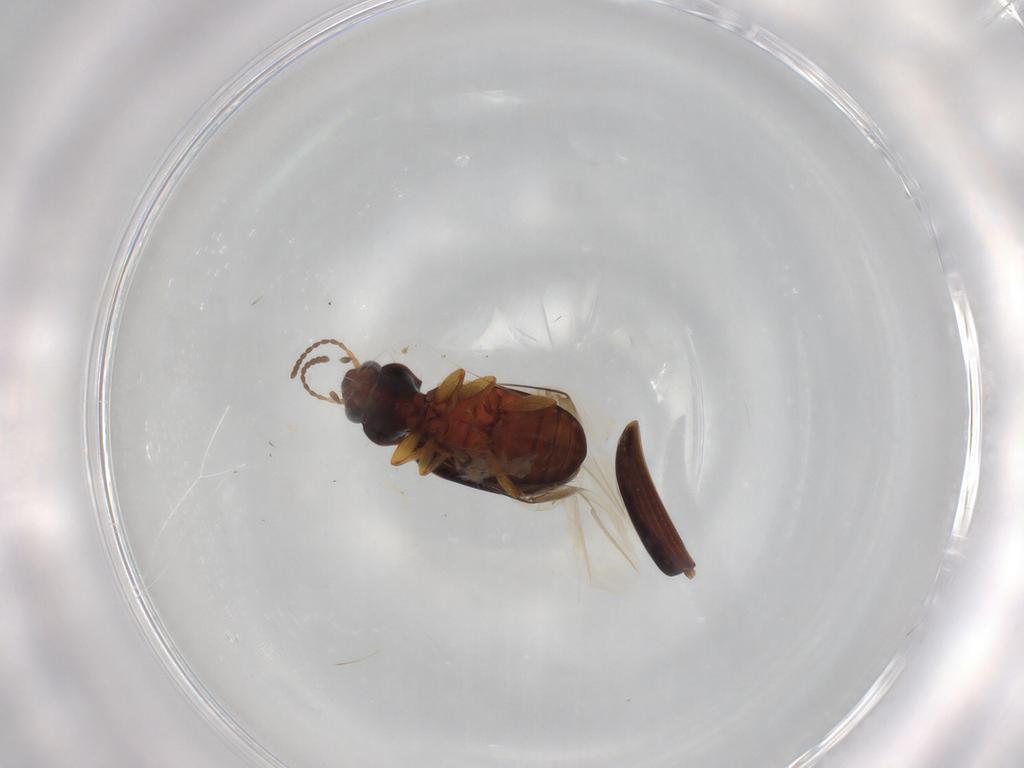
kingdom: Animalia
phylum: Arthropoda
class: Insecta
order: Coleoptera
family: Carabidae
